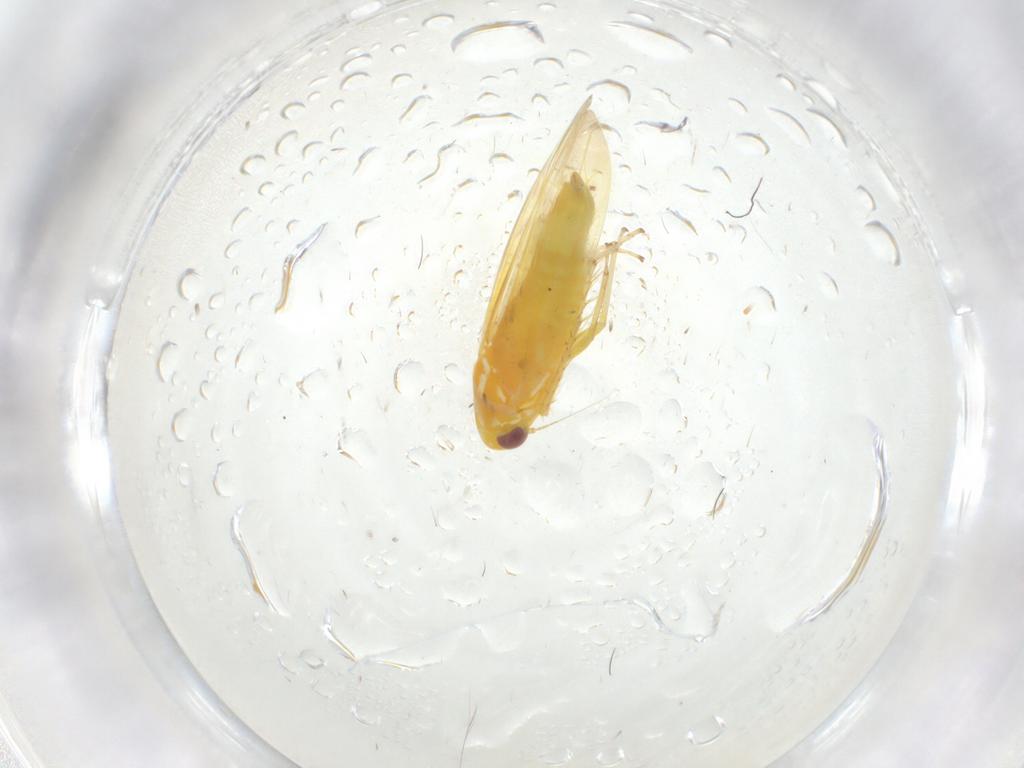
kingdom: Animalia
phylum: Arthropoda
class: Insecta
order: Hemiptera
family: Cicadellidae
